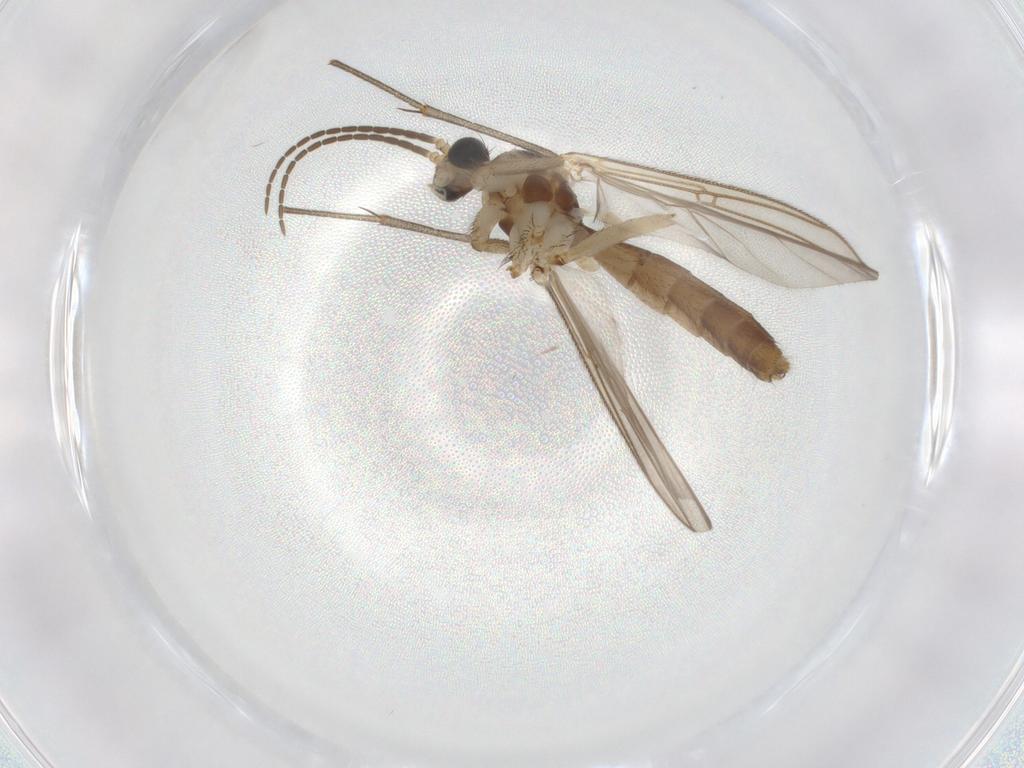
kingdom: Animalia
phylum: Arthropoda
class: Insecta
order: Diptera
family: Mycetophilidae
